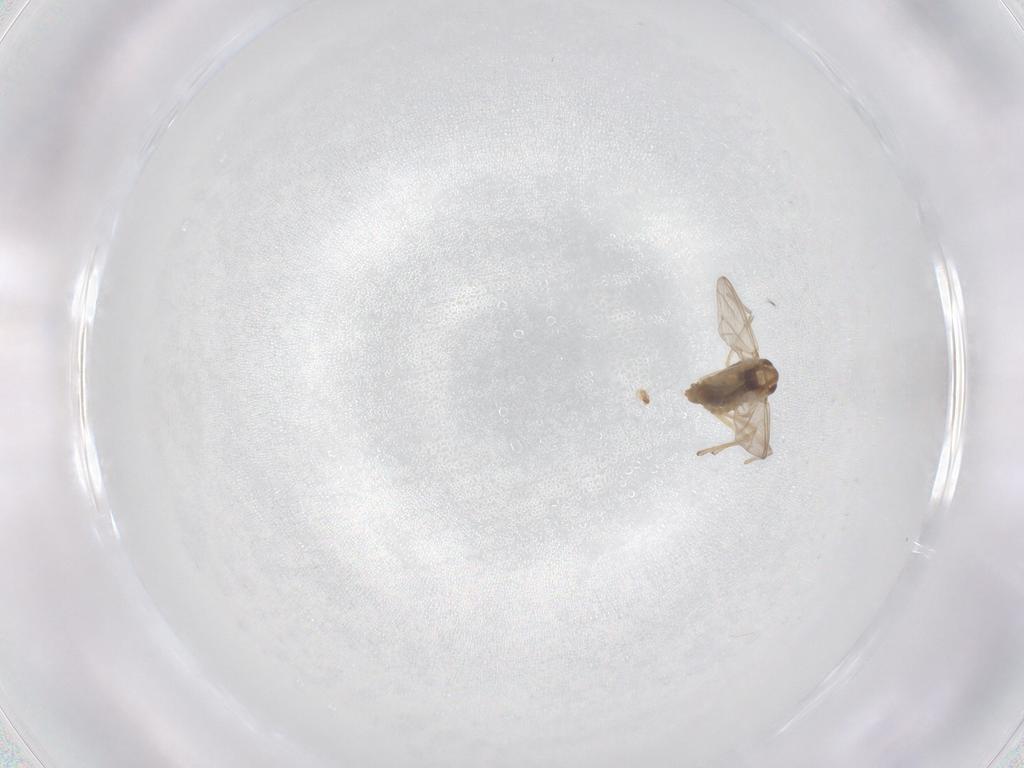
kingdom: Animalia
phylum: Arthropoda
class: Insecta
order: Diptera
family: Chironomidae
